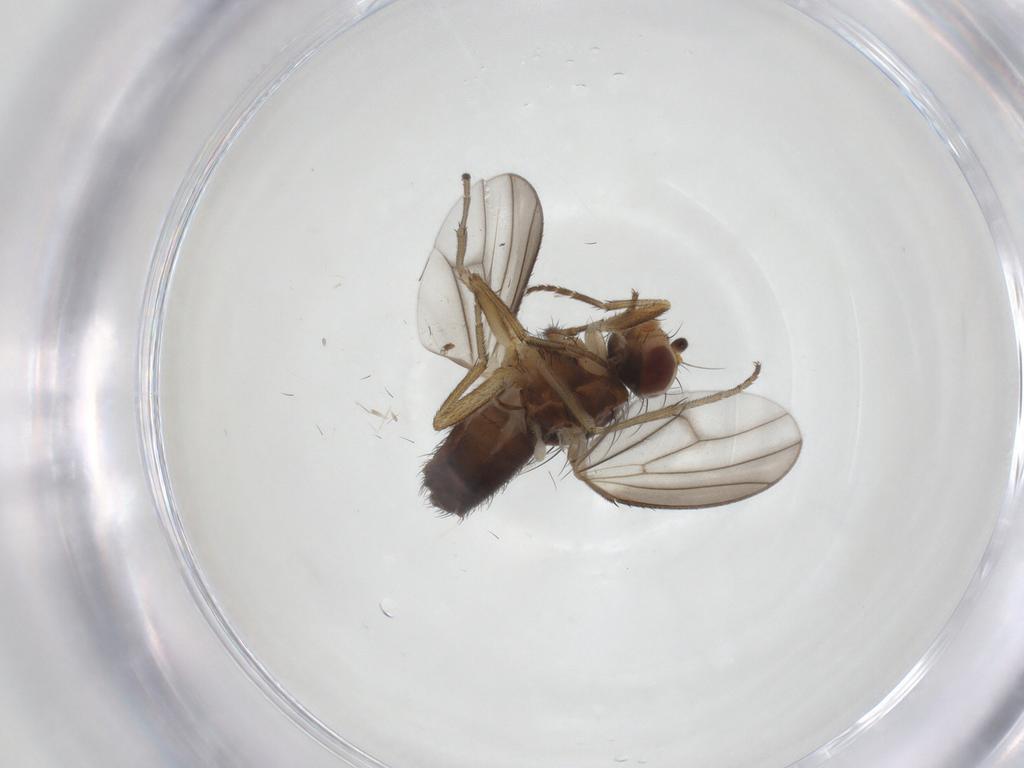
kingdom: Animalia
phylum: Arthropoda
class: Insecta
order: Diptera
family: Heleomyzidae
